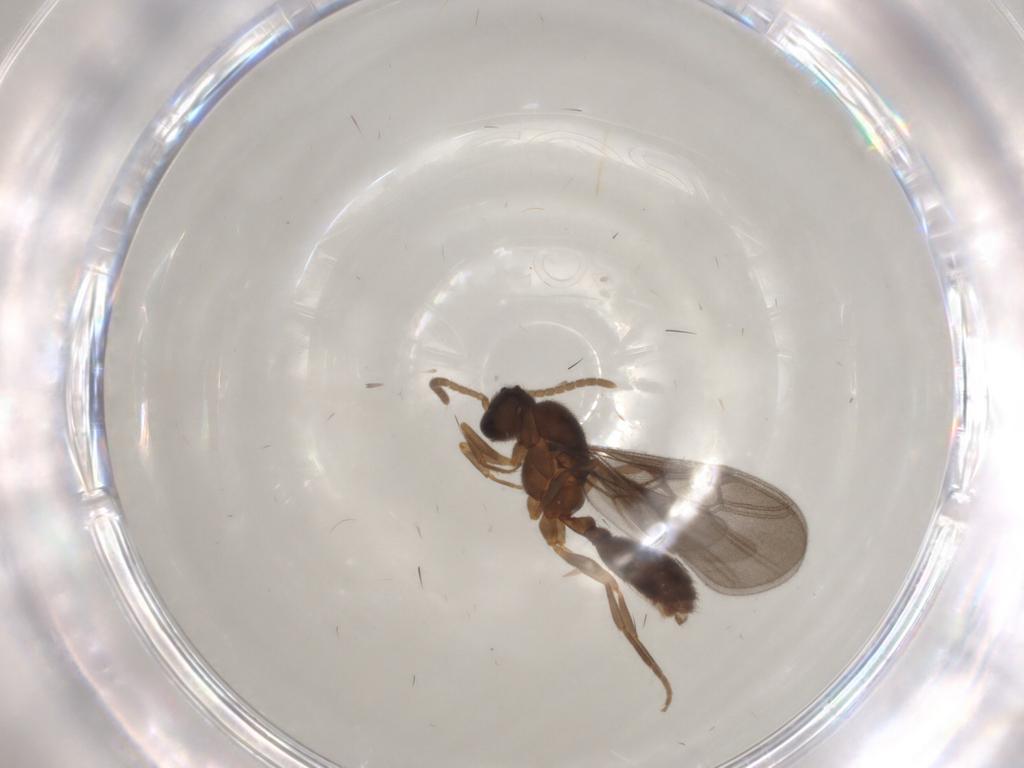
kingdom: Animalia
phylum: Arthropoda
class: Insecta
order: Hymenoptera
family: Formicidae
